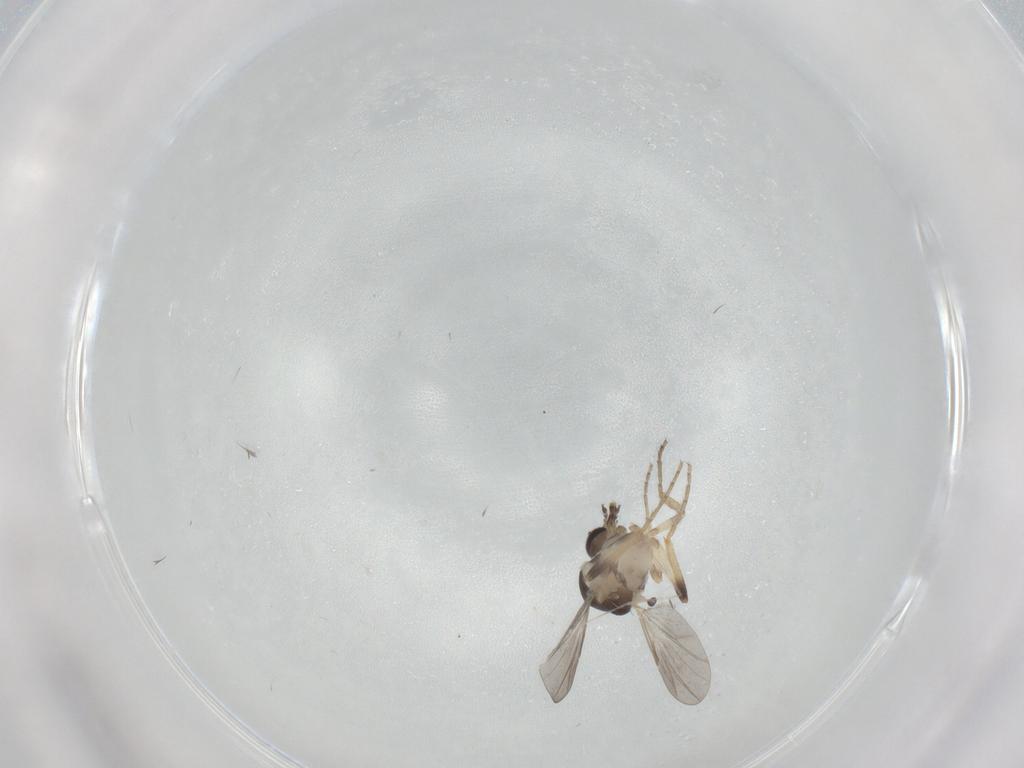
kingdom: Animalia
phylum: Arthropoda
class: Insecta
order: Diptera
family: Ceratopogonidae
